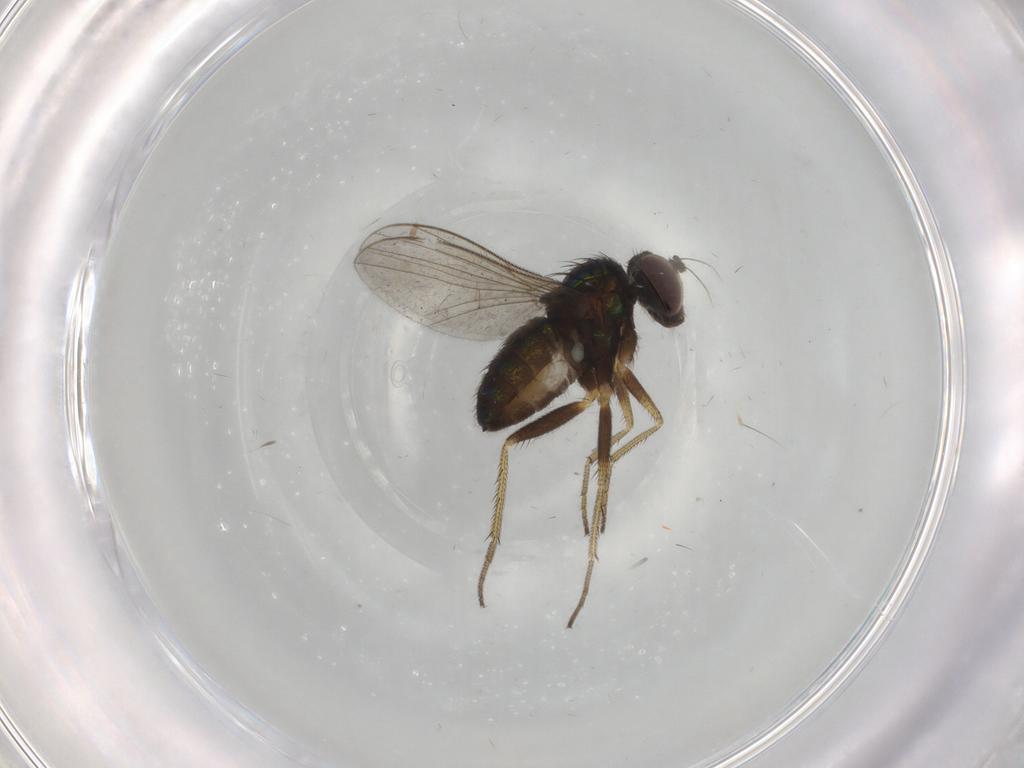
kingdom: Animalia
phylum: Arthropoda
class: Insecta
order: Diptera
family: Dolichopodidae
